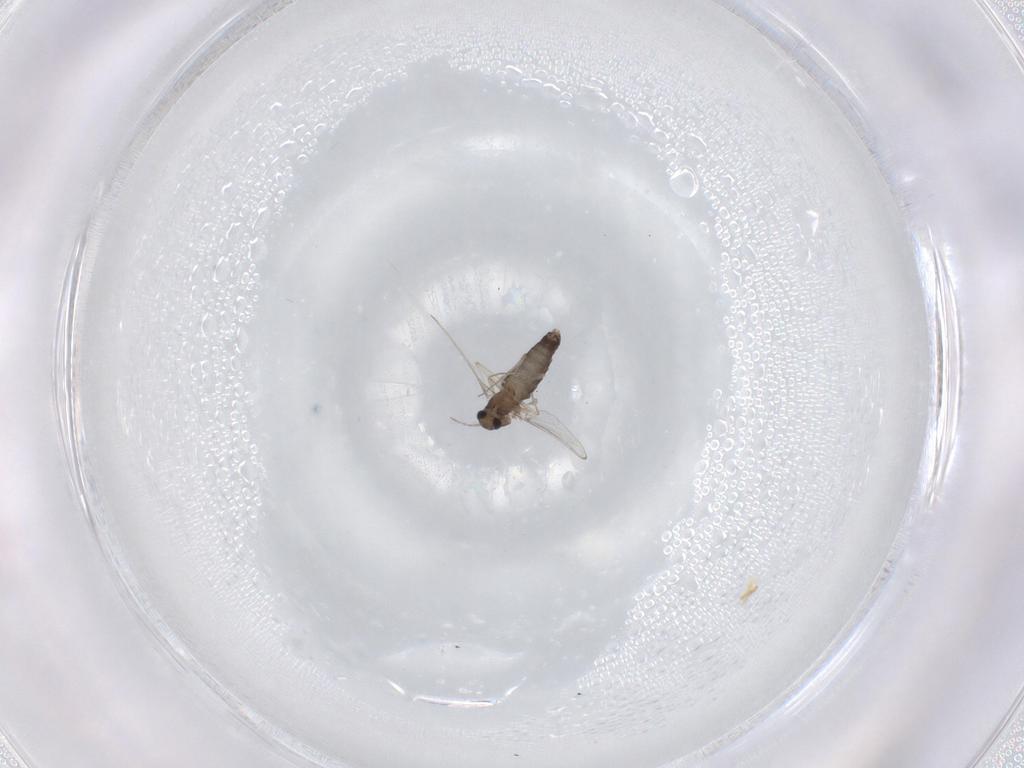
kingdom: Animalia
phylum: Arthropoda
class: Insecta
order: Diptera
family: Chironomidae
